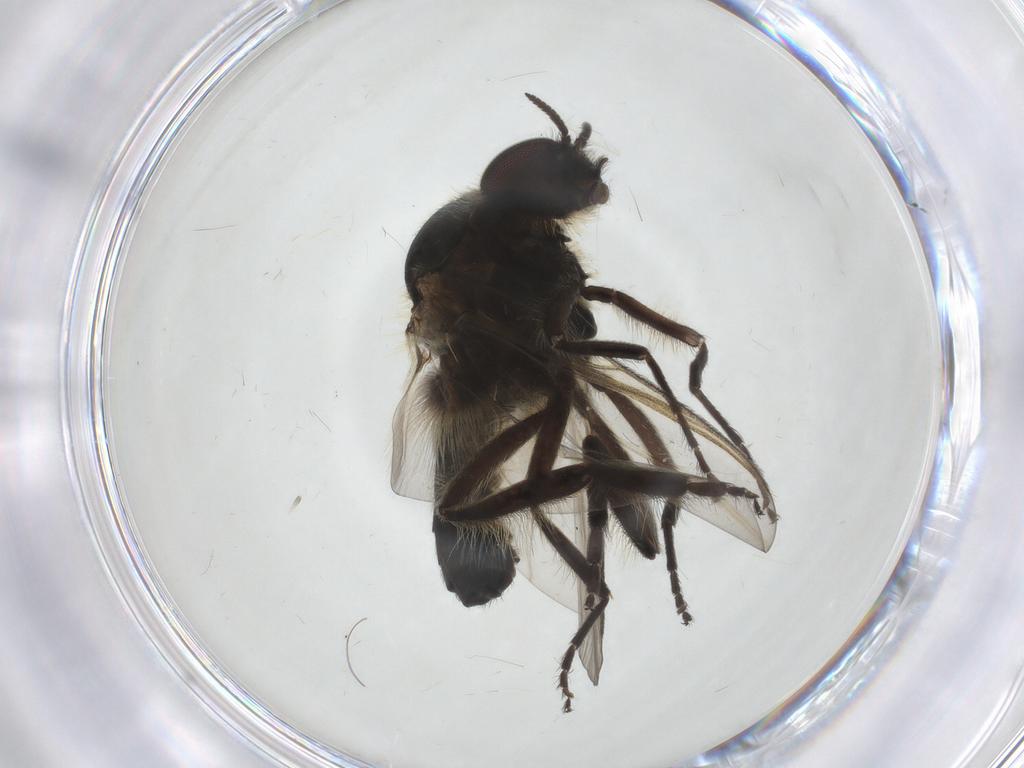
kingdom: Animalia
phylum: Arthropoda
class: Insecta
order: Diptera
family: Simuliidae
